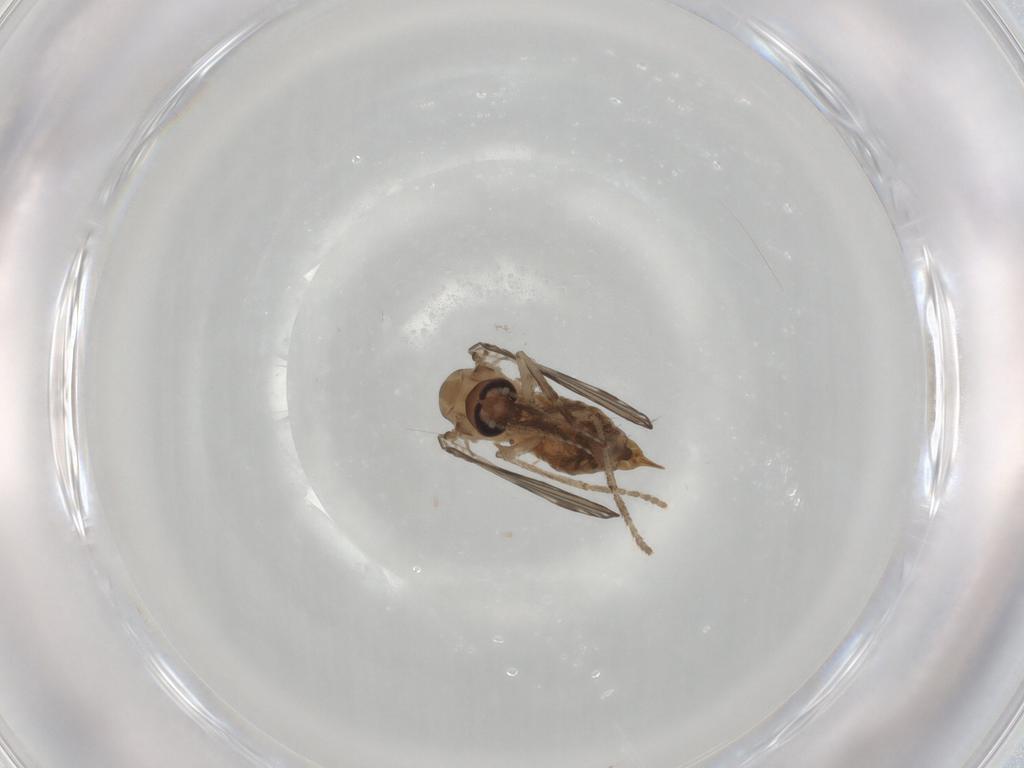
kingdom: Animalia
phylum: Arthropoda
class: Insecta
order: Diptera
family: Psychodidae
